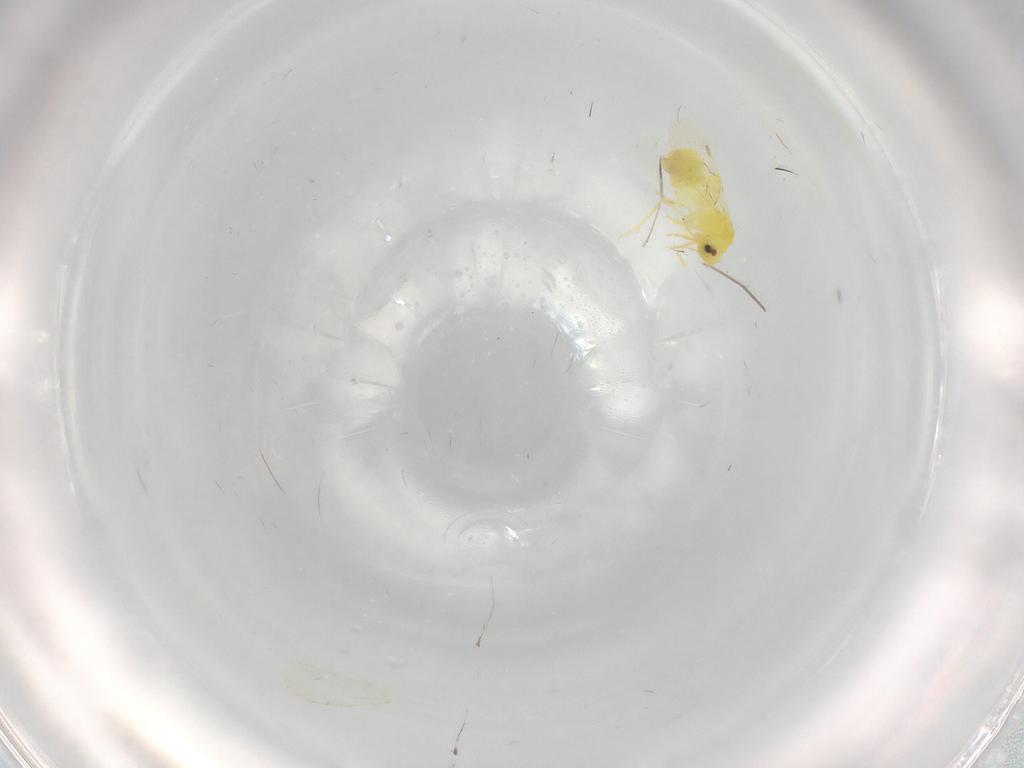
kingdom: Animalia
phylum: Arthropoda
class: Insecta
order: Hemiptera
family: Aleyrodidae
